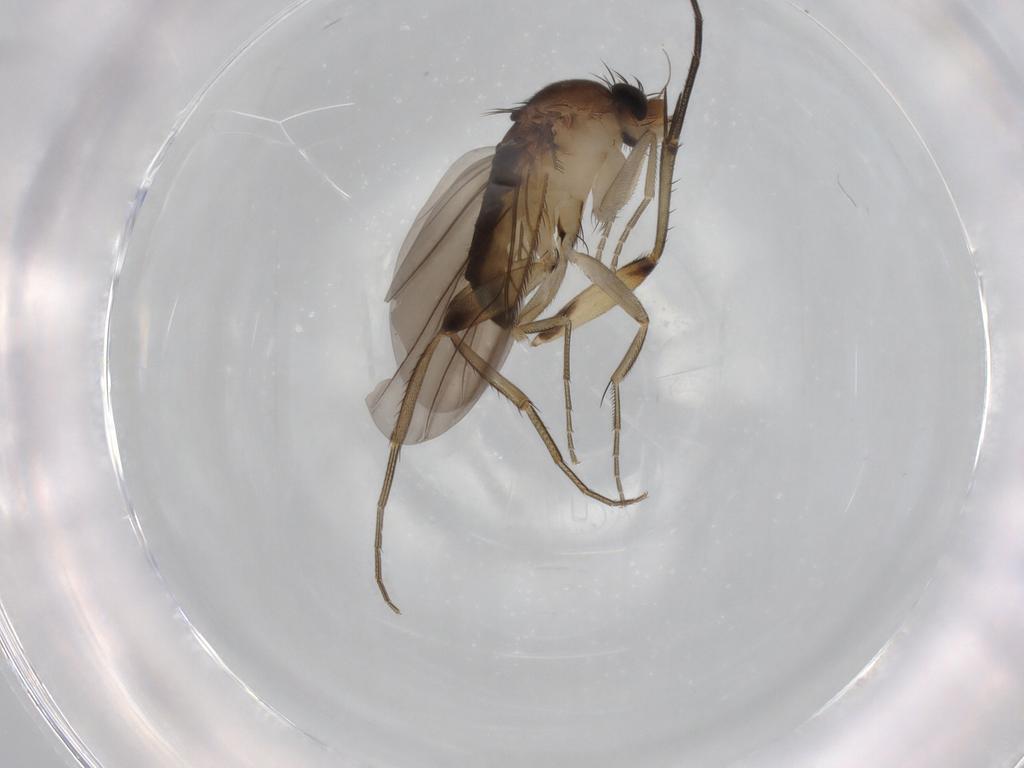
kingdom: Animalia
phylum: Arthropoda
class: Insecta
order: Diptera
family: Phoridae
